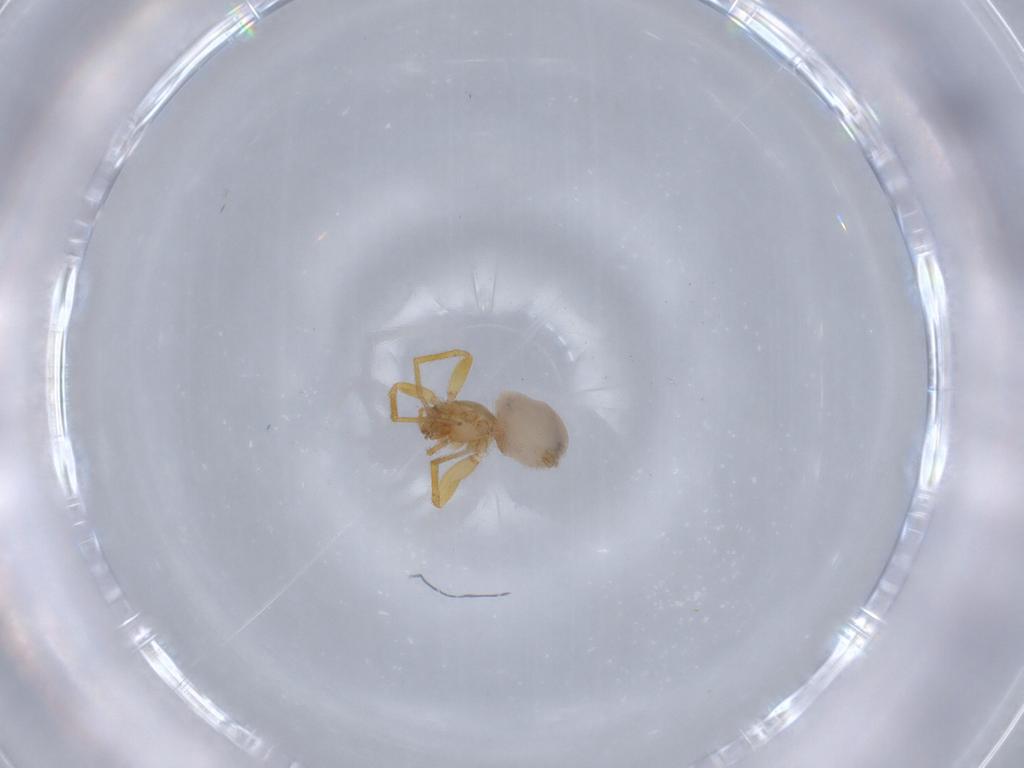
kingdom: Animalia
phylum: Arthropoda
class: Arachnida
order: Araneae
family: Oonopidae
